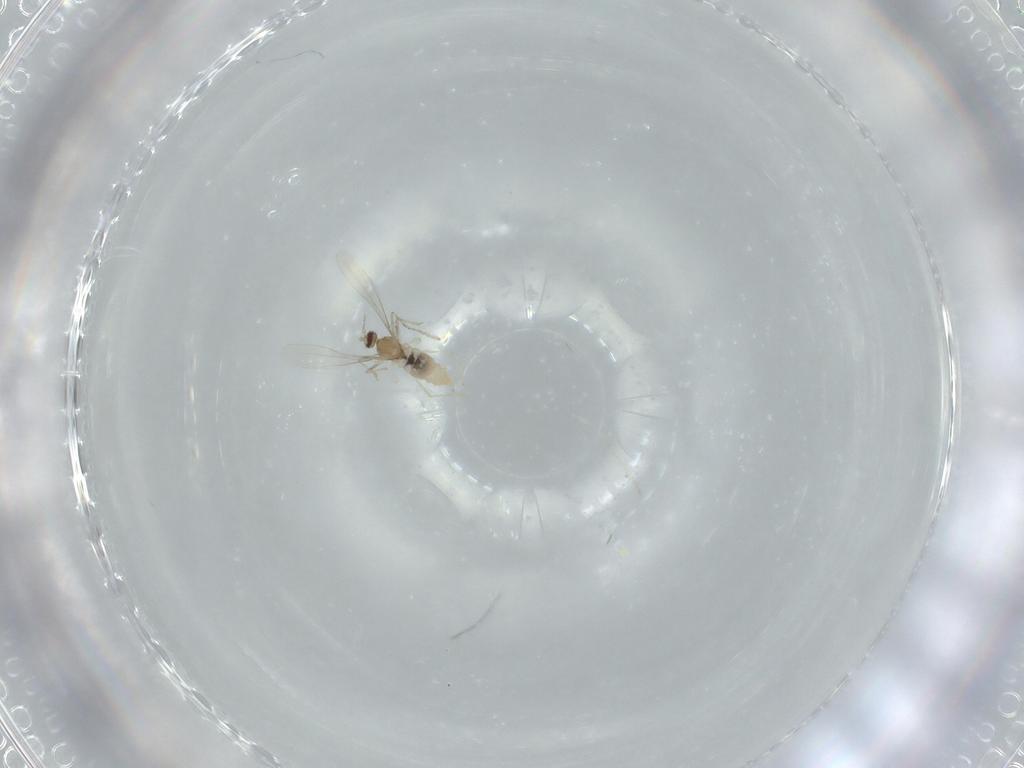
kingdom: Animalia
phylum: Arthropoda
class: Insecta
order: Diptera
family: Cecidomyiidae
